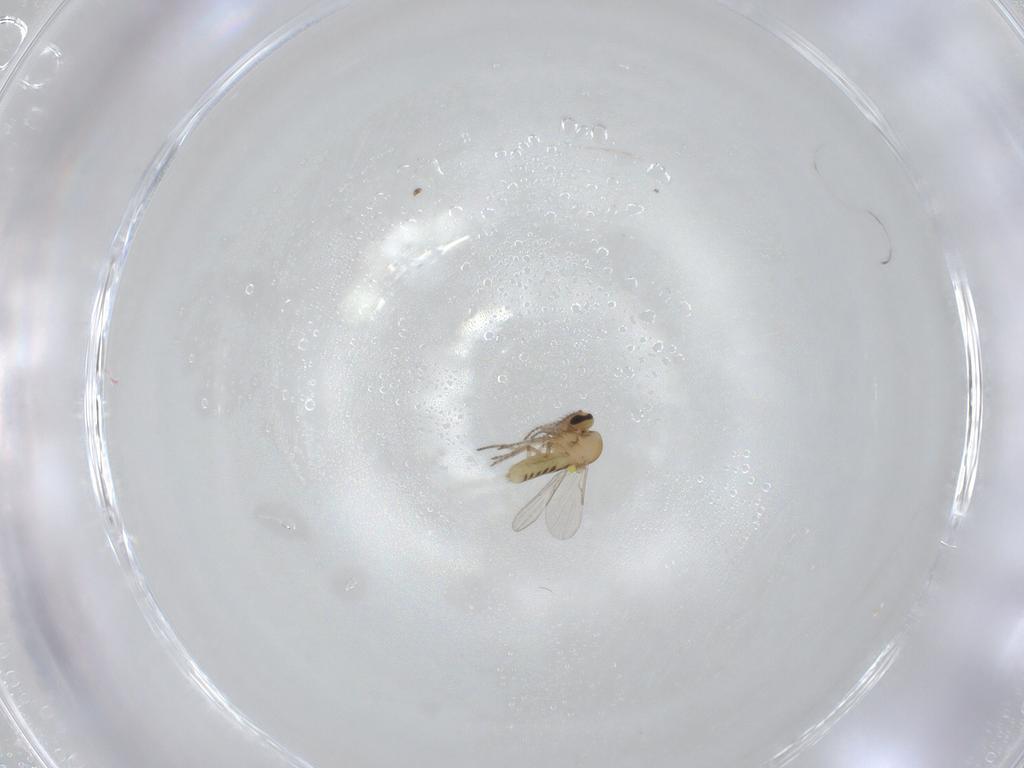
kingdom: Animalia
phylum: Arthropoda
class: Insecta
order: Diptera
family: Ceratopogonidae
